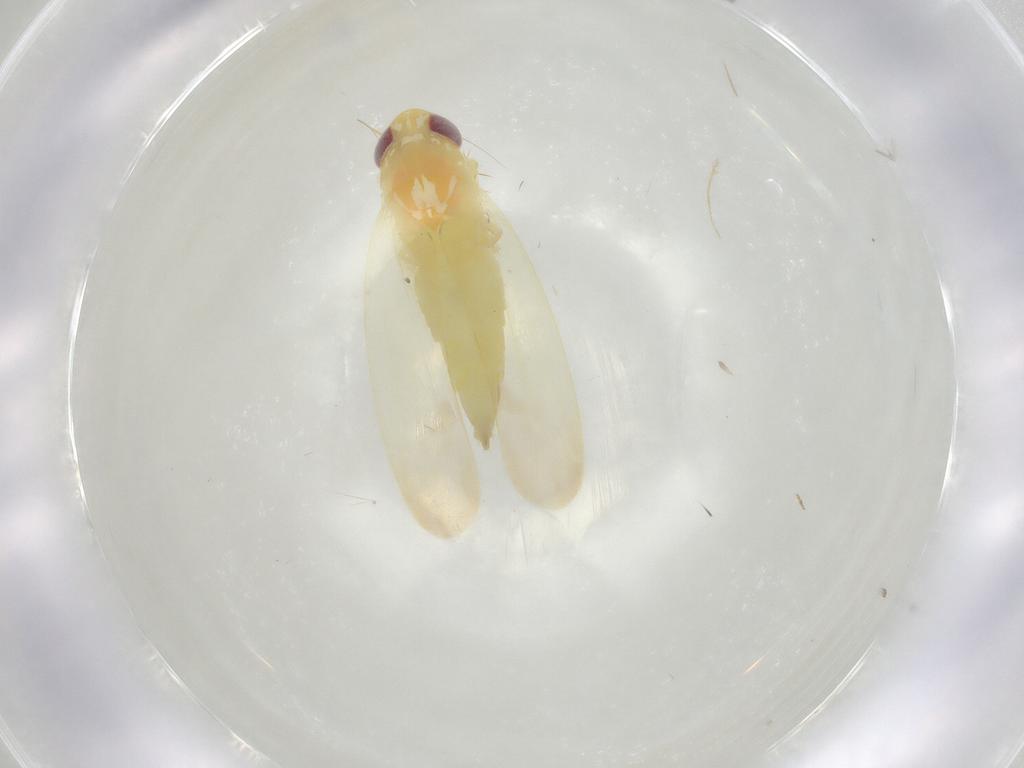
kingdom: Animalia
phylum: Arthropoda
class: Insecta
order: Hemiptera
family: Cicadellidae
